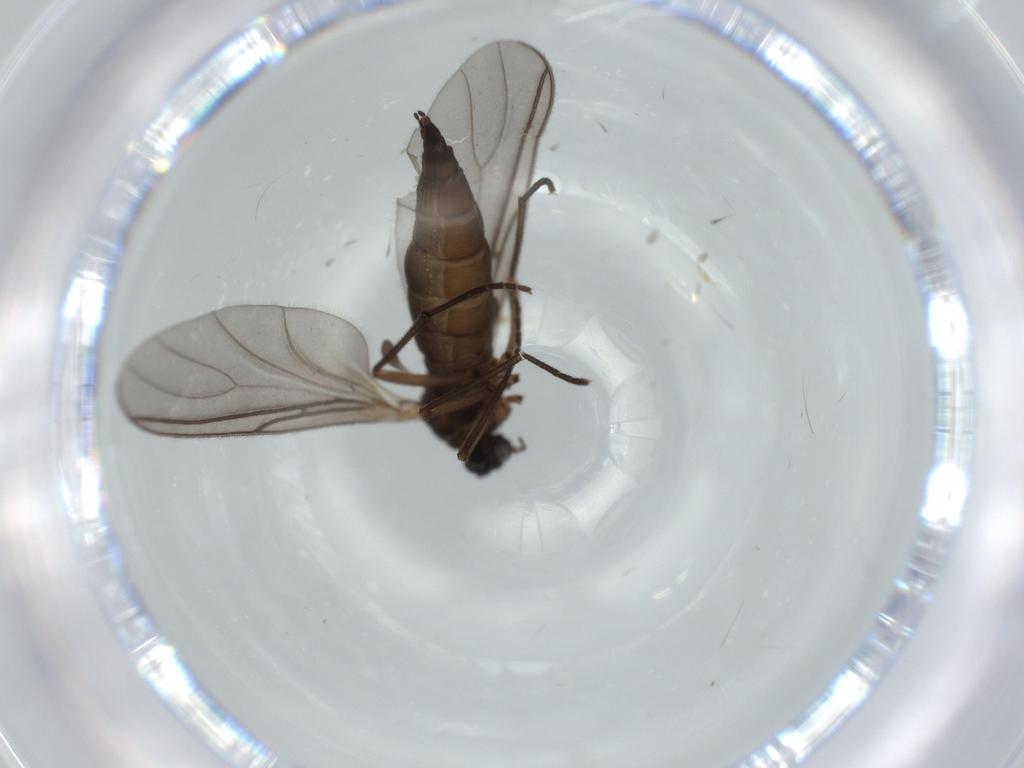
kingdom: Animalia
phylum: Arthropoda
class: Insecta
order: Diptera
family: Sciaridae
